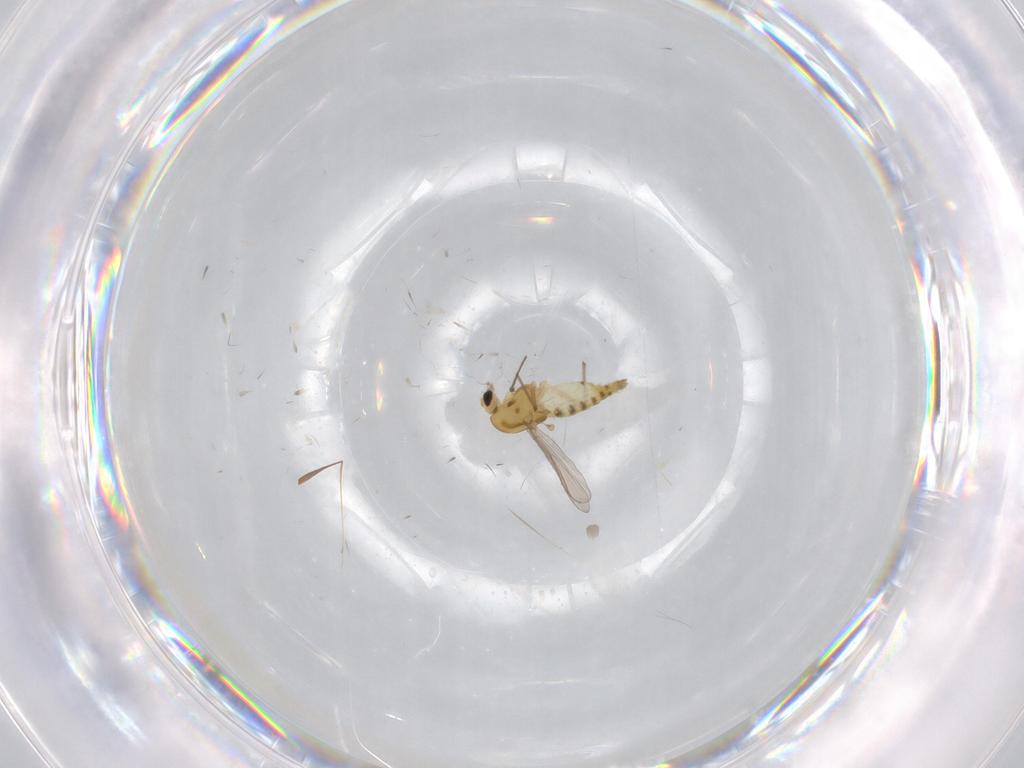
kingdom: Animalia
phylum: Arthropoda
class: Insecta
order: Diptera
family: Chironomidae
